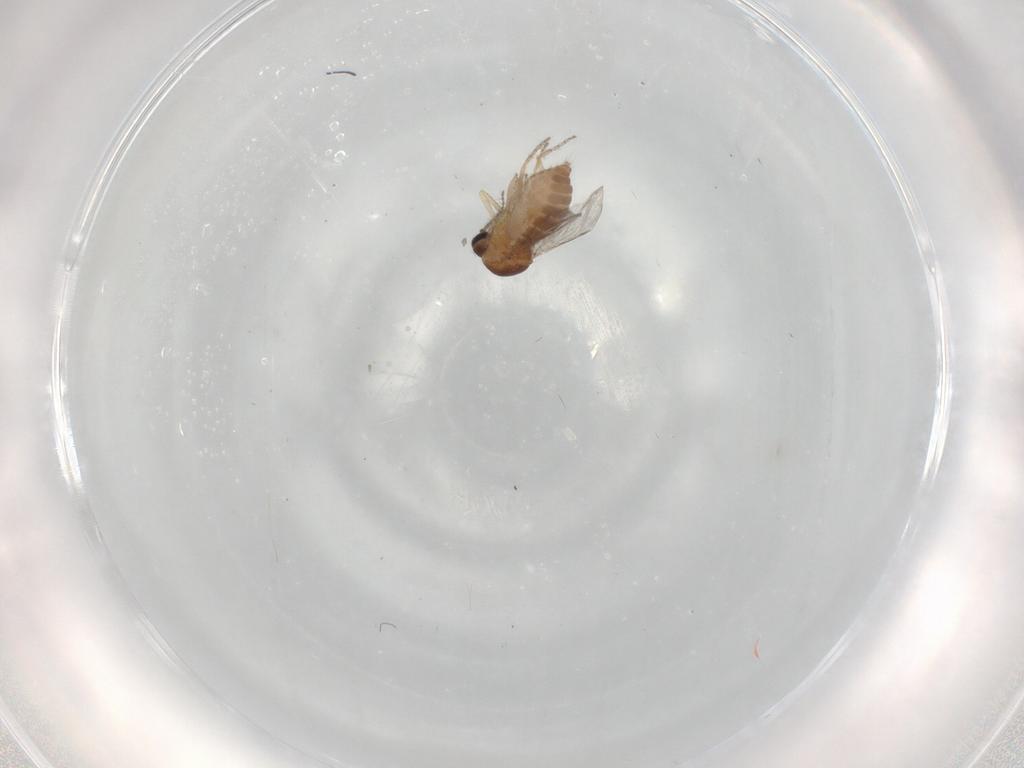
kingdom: Animalia
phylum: Arthropoda
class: Insecta
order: Diptera
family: Ceratopogonidae
